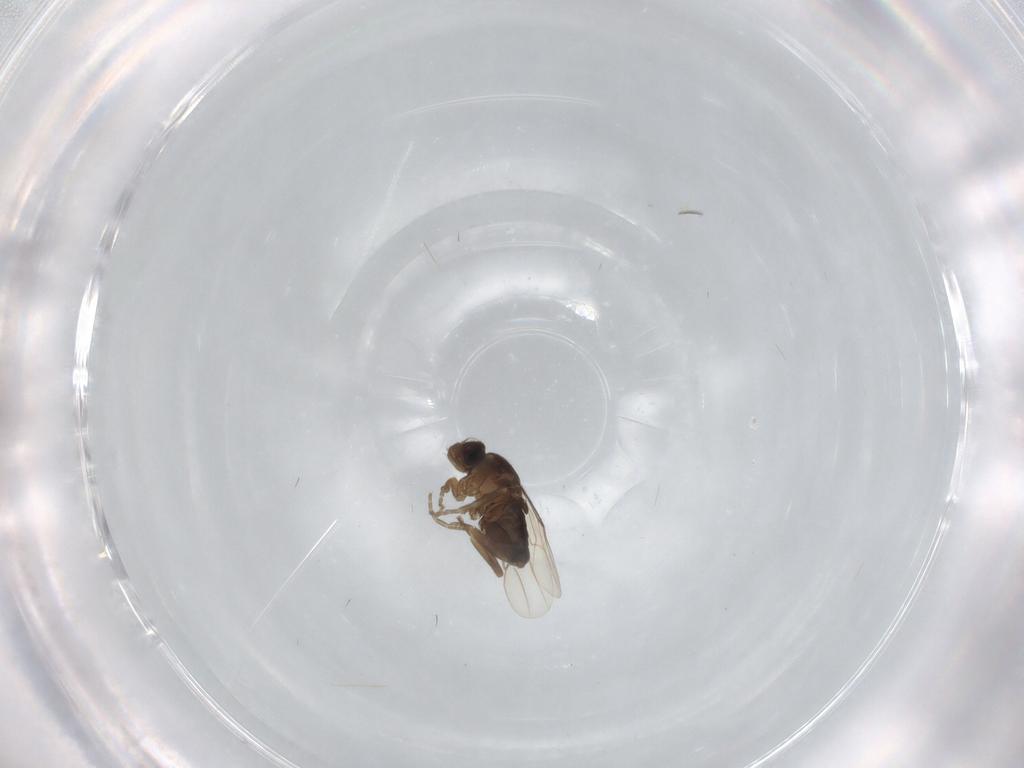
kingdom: Animalia
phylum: Arthropoda
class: Insecta
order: Diptera
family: Phoridae
